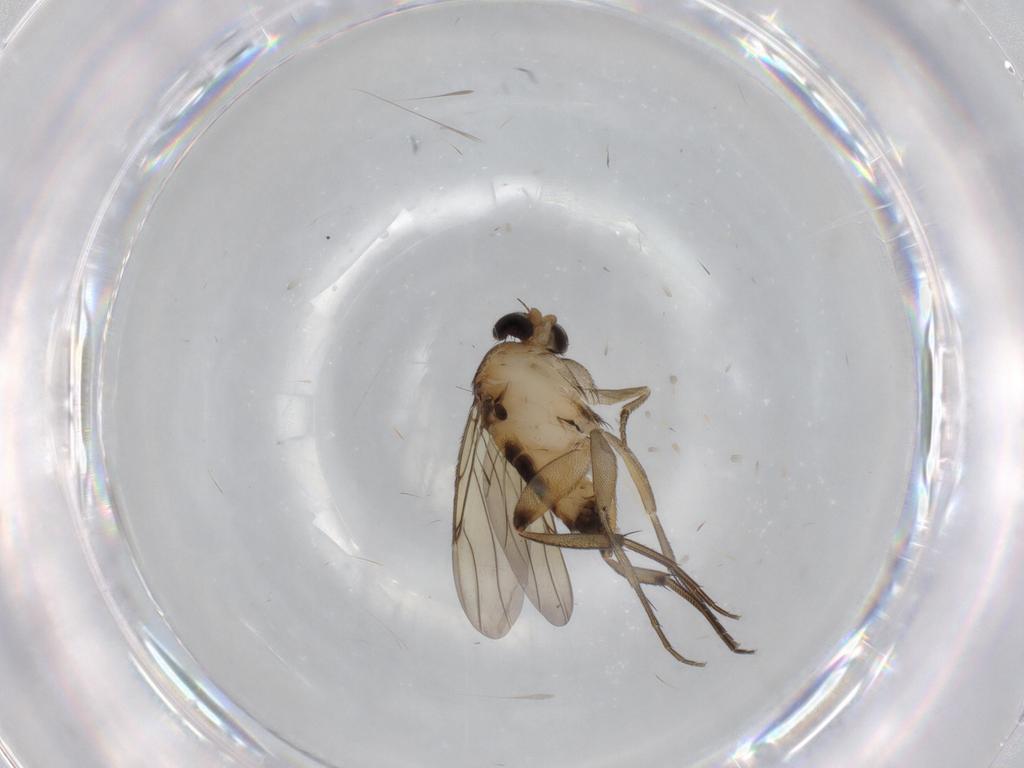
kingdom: Animalia
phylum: Arthropoda
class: Insecta
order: Diptera
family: Phoridae
